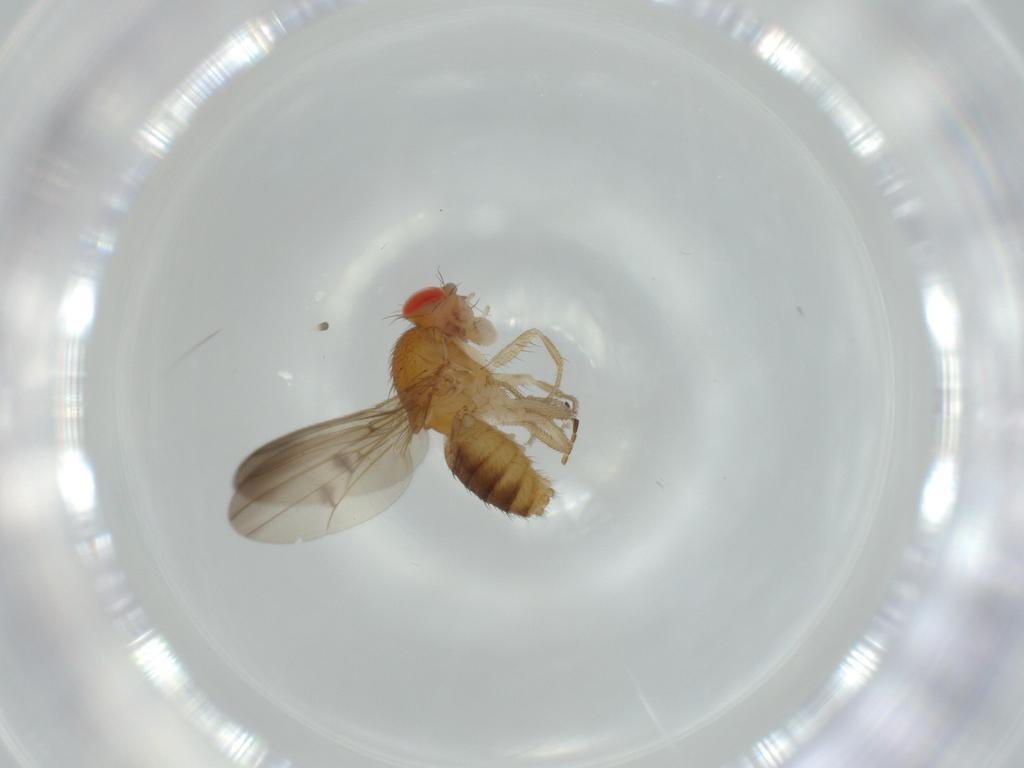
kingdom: Animalia
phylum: Arthropoda
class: Insecta
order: Diptera
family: Drosophilidae
